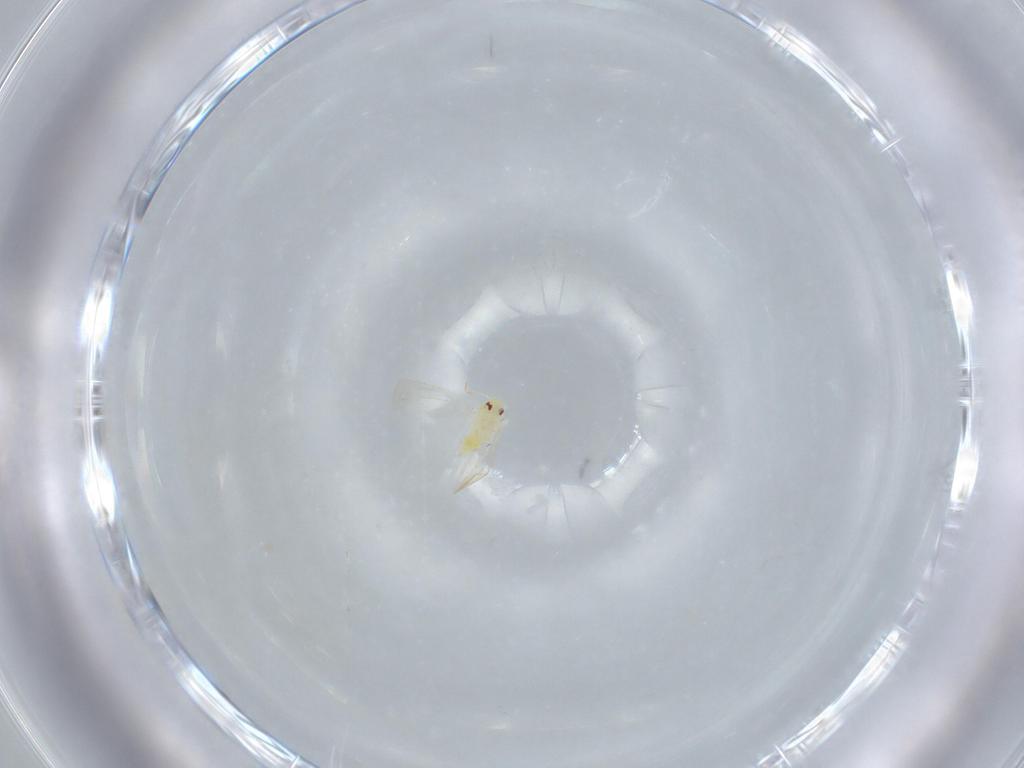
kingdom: Animalia
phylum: Arthropoda
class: Insecta
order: Hemiptera
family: Aleyrodidae
